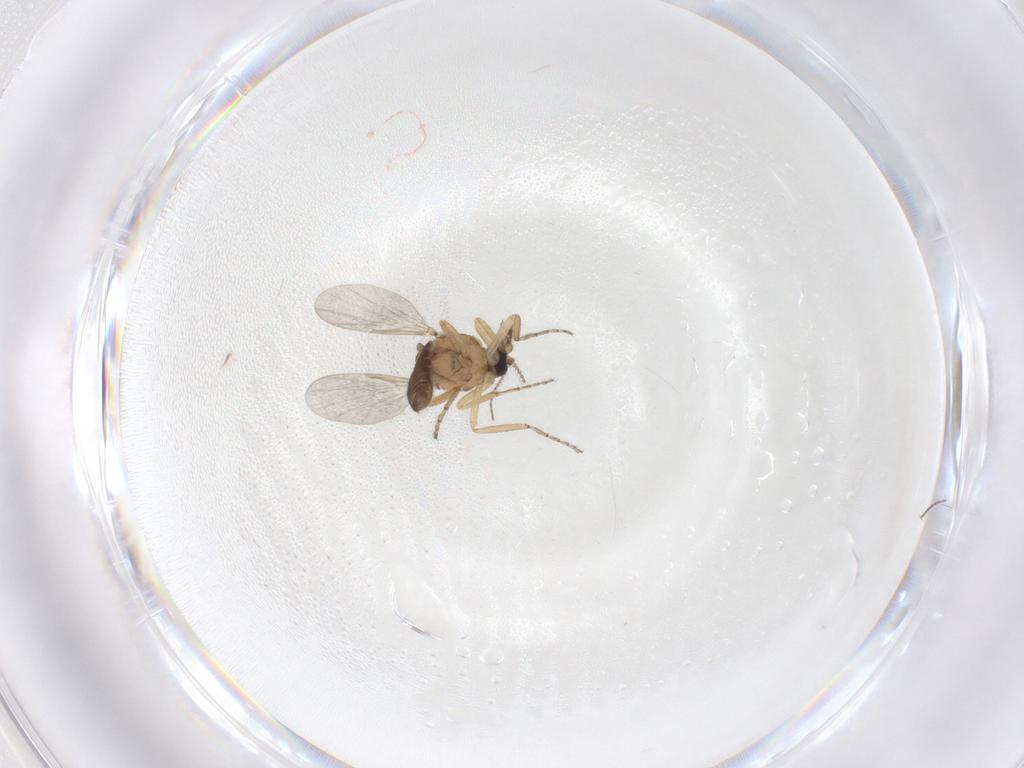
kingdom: Animalia
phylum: Arthropoda
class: Insecta
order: Diptera
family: Ceratopogonidae
